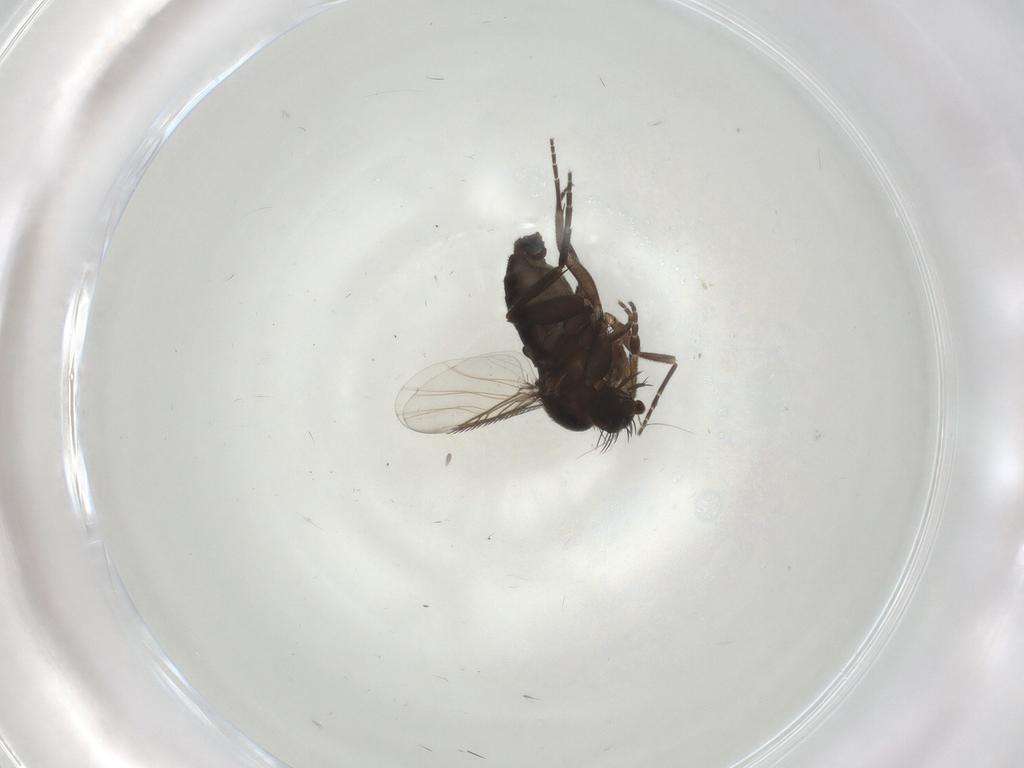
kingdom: Animalia
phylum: Arthropoda
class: Insecta
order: Diptera
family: Phoridae
